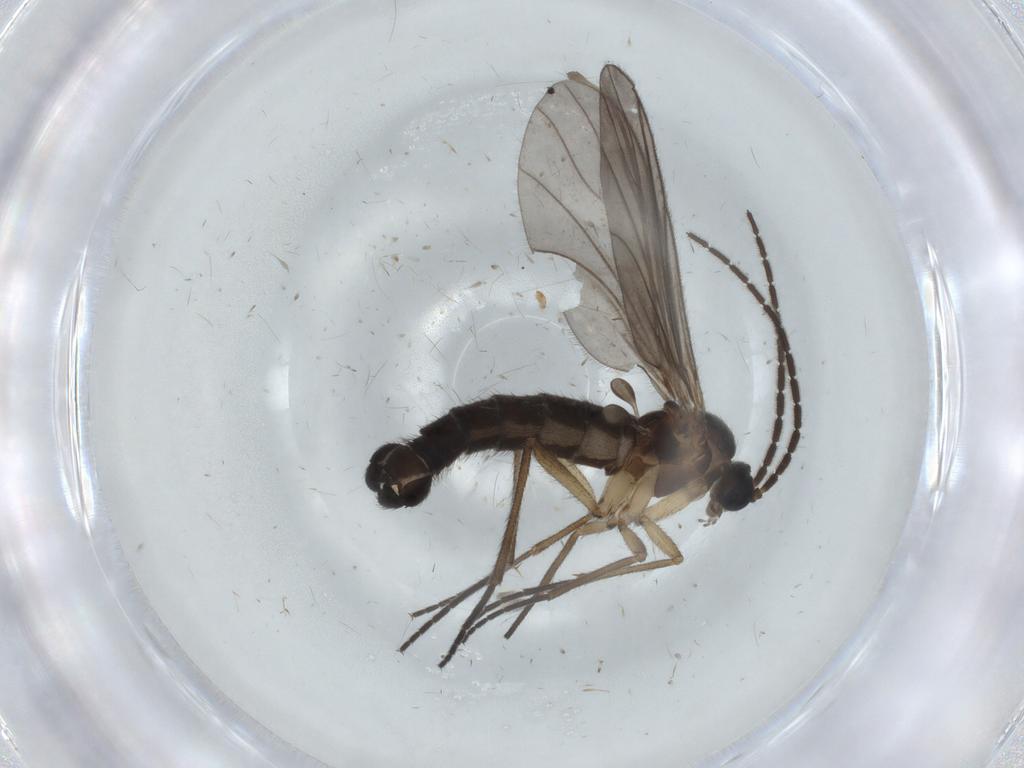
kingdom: Animalia
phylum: Arthropoda
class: Insecta
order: Diptera
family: Sciaridae
